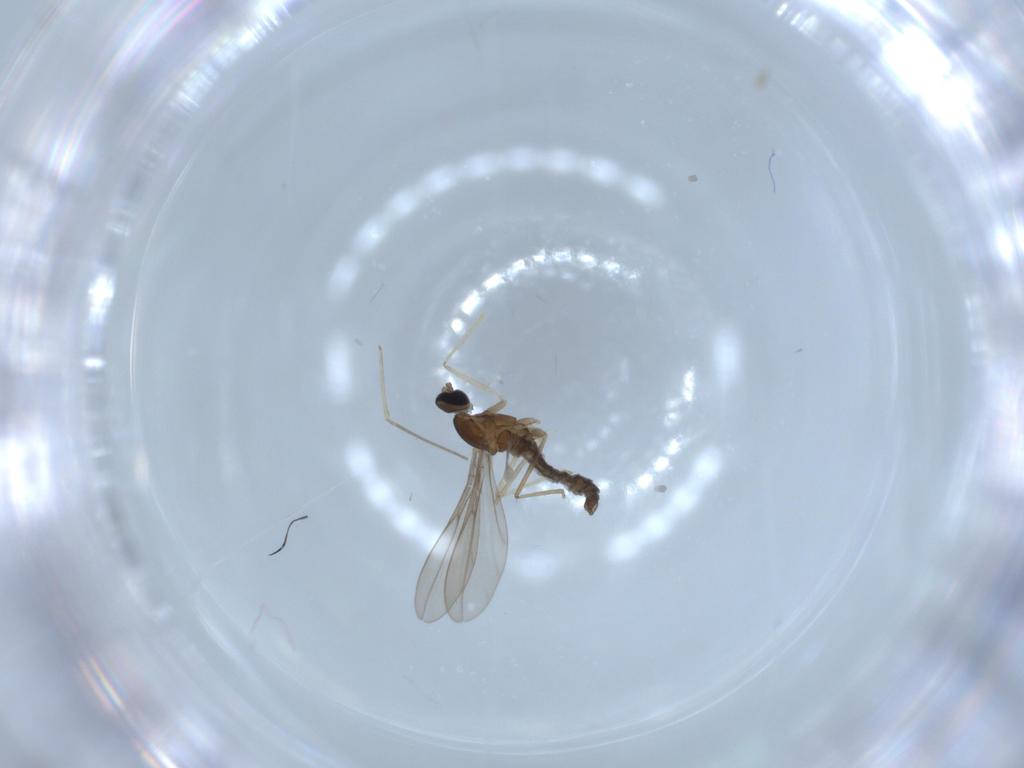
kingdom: Animalia
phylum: Arthropoda
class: Insecta
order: Diptera
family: Cecidomyiidae
